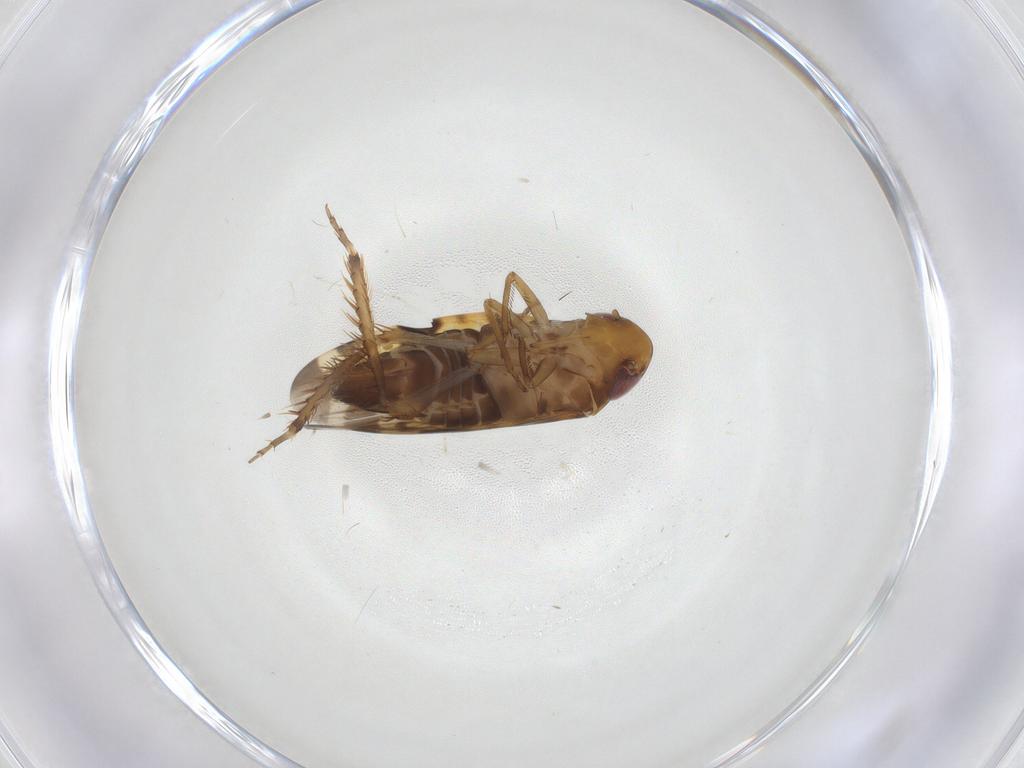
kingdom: Animalia
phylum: Arthropoda
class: Insecta
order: Hemiptera
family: Cicadellidae
